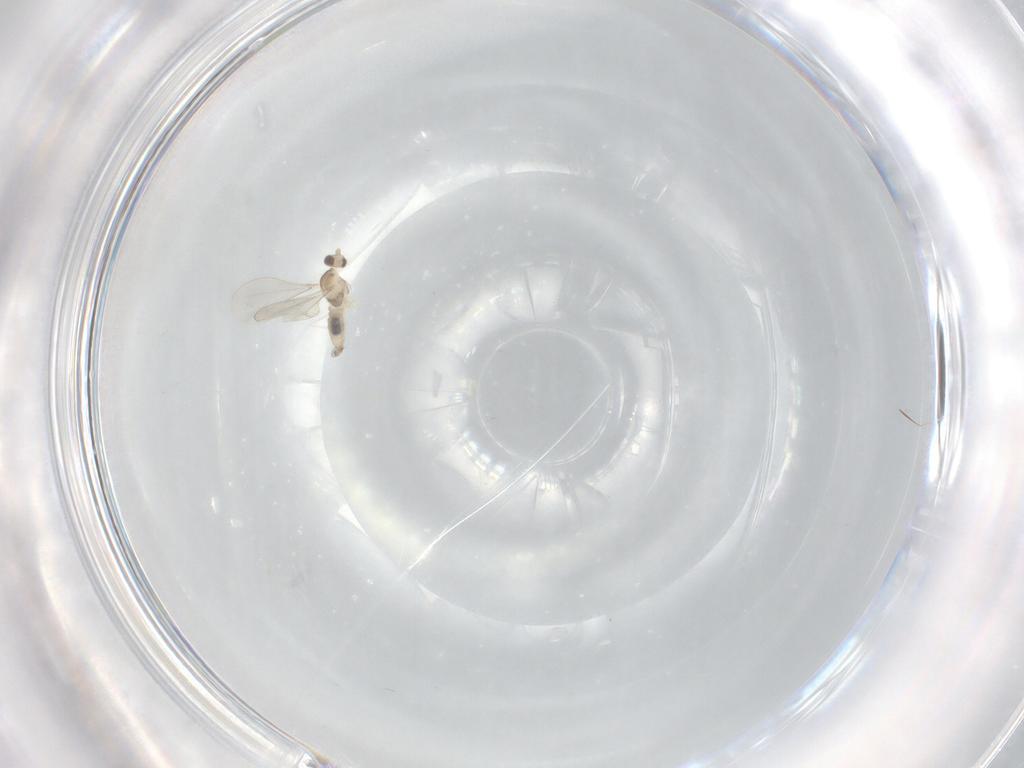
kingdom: Animalia
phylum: Arthropoda
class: Insecta
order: Diptera
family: Cecidomyiidae
